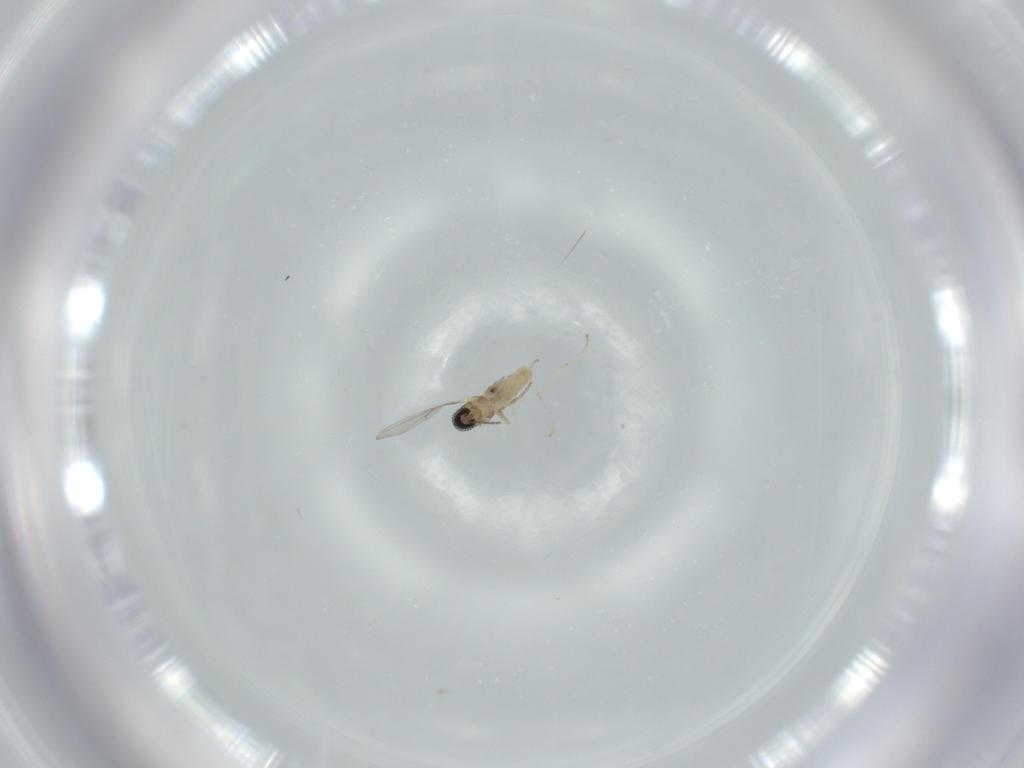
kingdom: Animalia
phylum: Arthropoda
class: Insecta
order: Diptera
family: Cecidomyiidae
